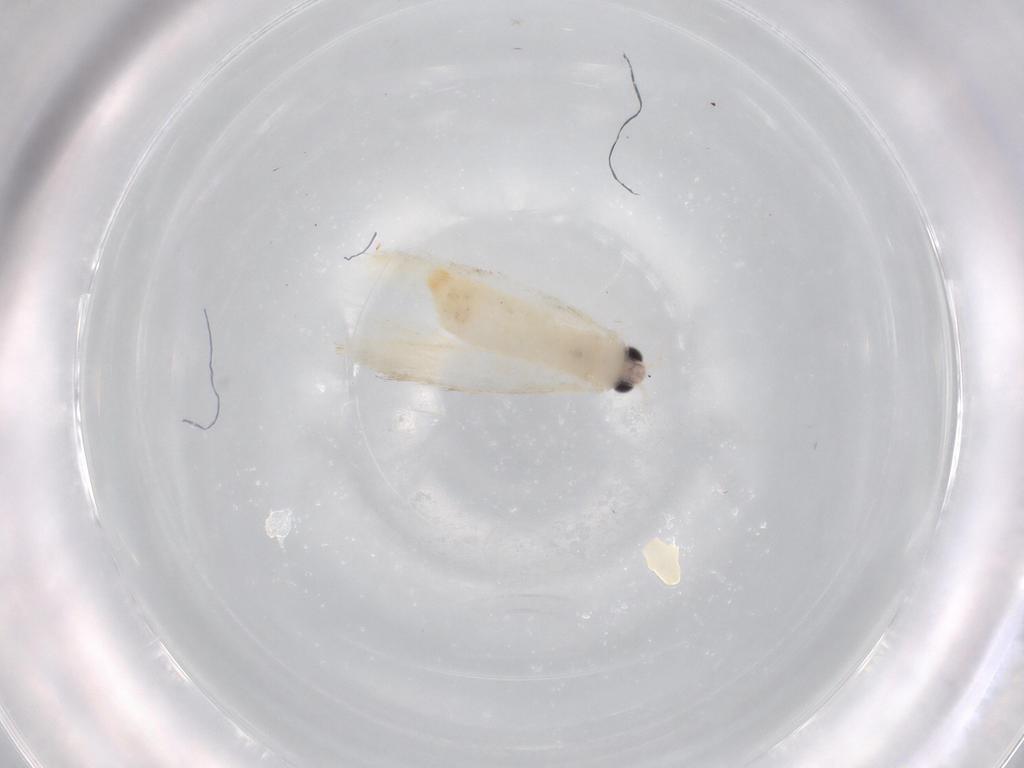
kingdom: Animalia
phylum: Arthropoda
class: Insecta
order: Lepidoptera
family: Tineidae
